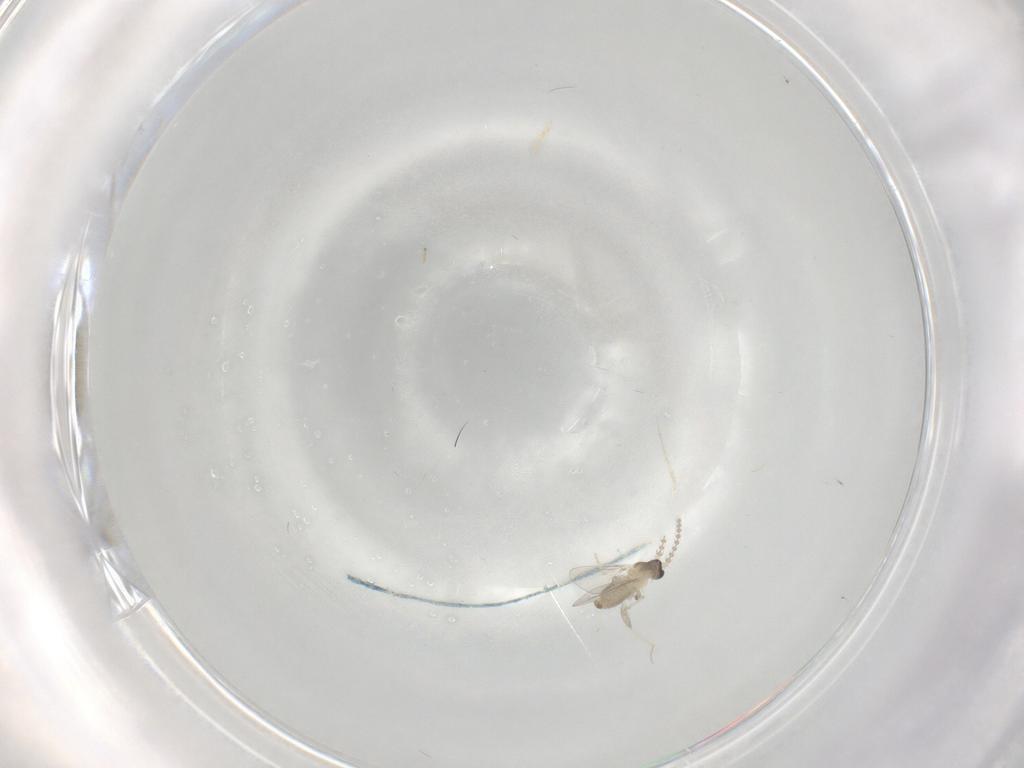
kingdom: Animalia
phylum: Arthropoda
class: Insecta
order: Diptera
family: Cecidomyiidae
